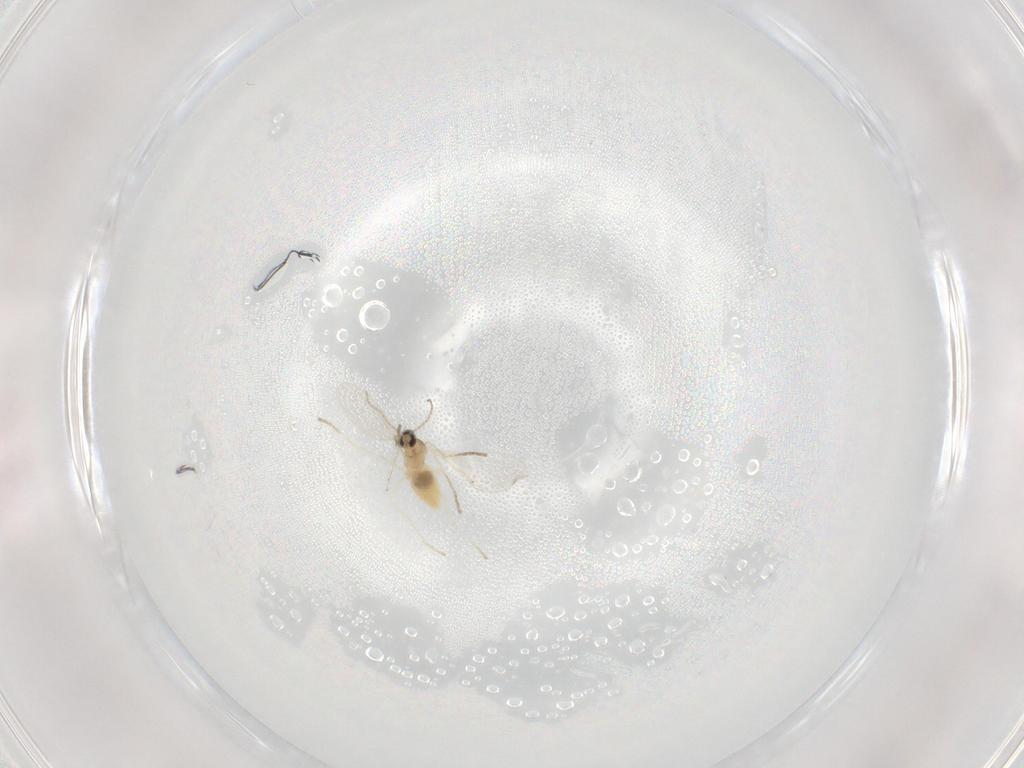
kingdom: Animalia
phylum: Arthropoda
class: Insecta
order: Diptera
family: Cecidomyiidae
